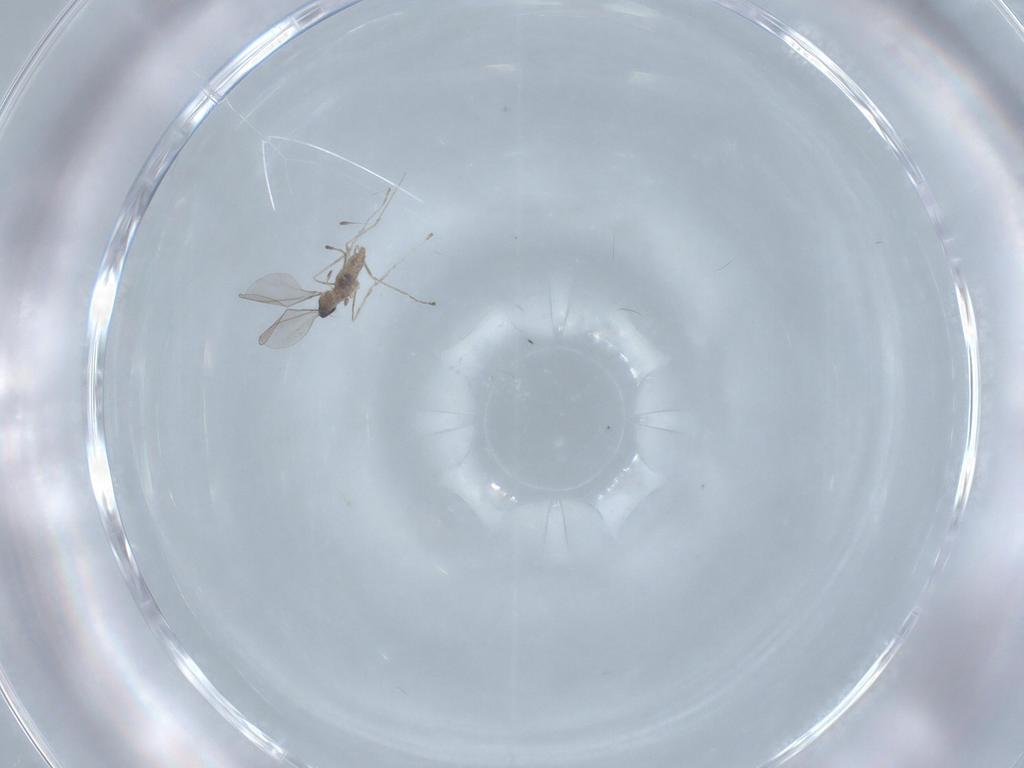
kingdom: Animalia
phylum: Arthropoda
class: Insecta
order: Diptera
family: Cecidomyiidae
